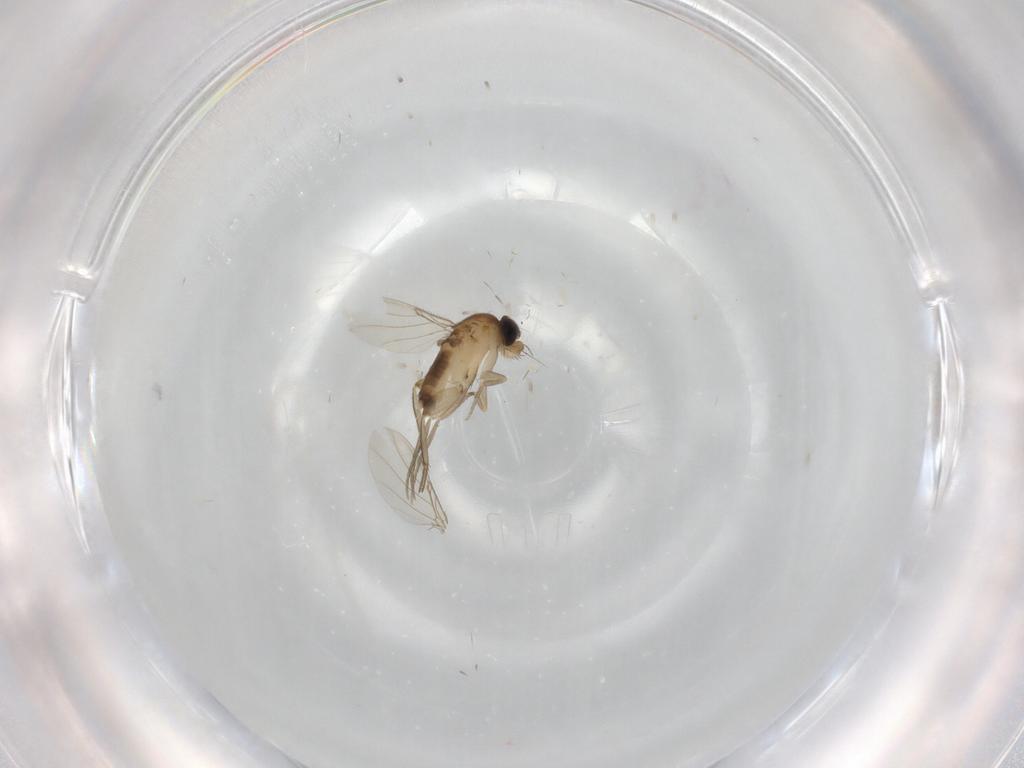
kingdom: Animalia
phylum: Arthropoda
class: Insecta
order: Diptera
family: Phoridae
